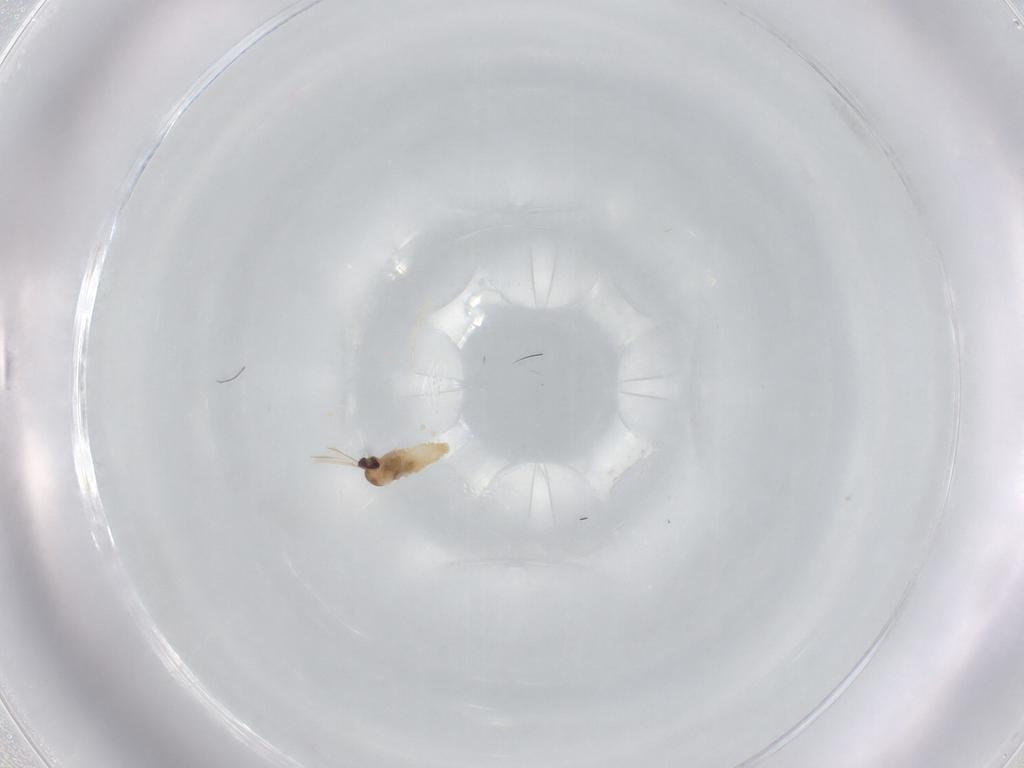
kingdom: Animalia
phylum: Arthropoda
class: Insecta
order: Diptera
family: Cecidomyiidae
